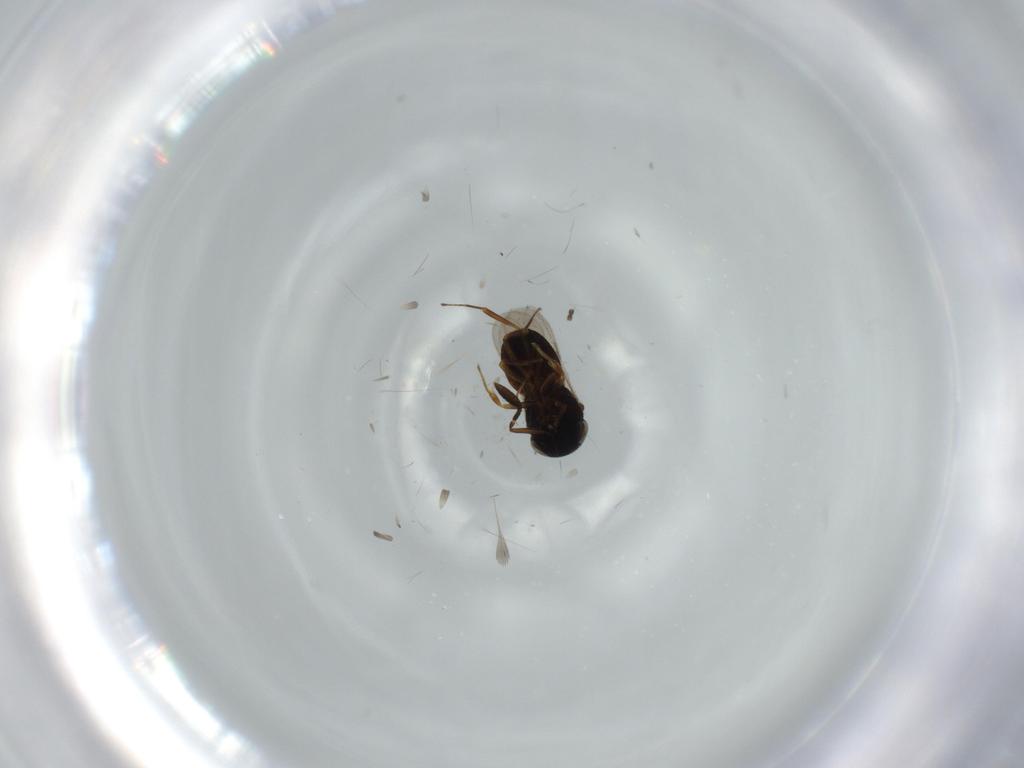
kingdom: Animalia
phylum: Arthropoda
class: Insecta
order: Hymenoptera
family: Scelionidae
